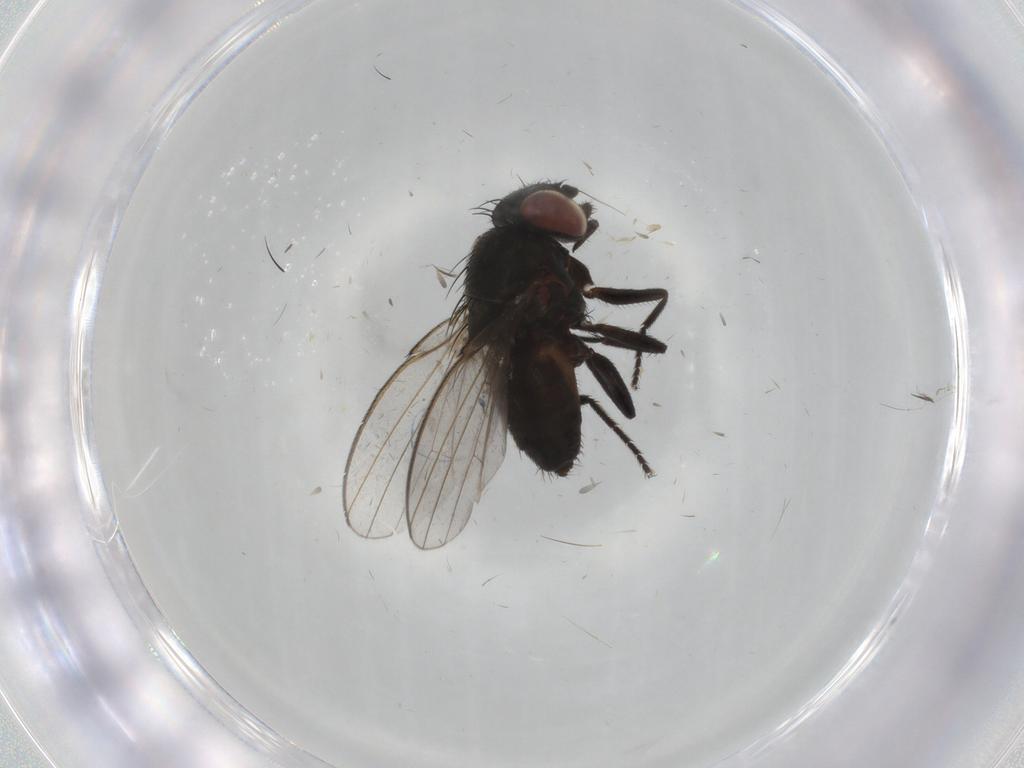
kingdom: Animalia
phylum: Arthropoda
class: Insecta
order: Diptera
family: Milichiidae
